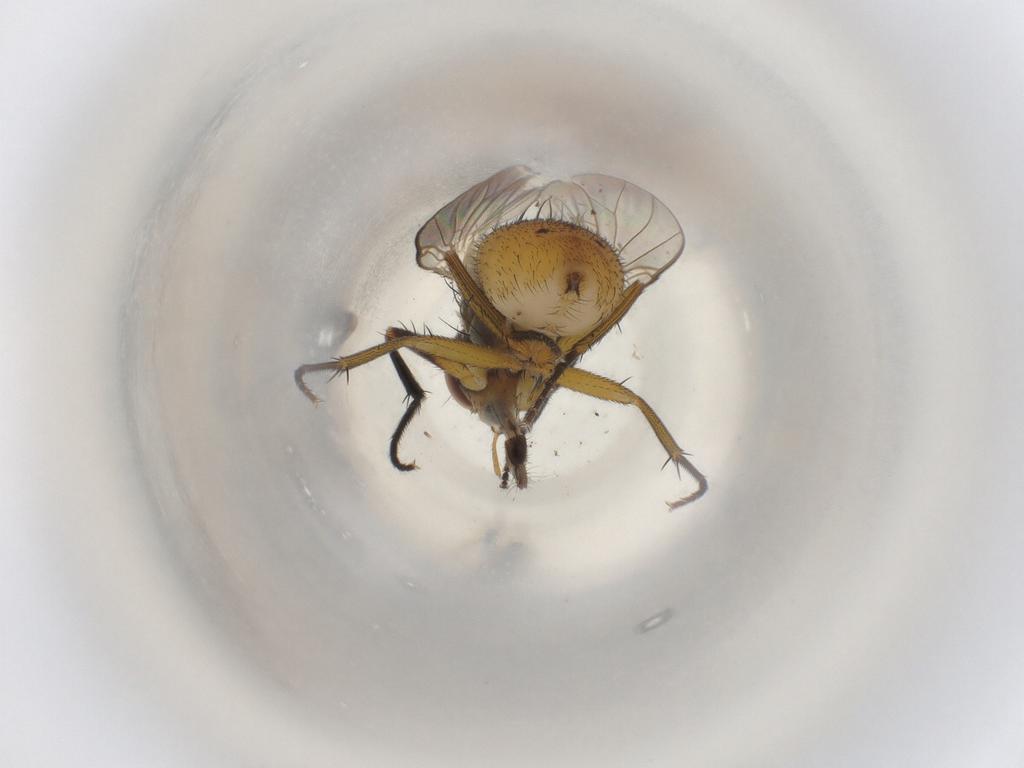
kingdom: Animalia
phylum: Arthropoda
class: Insecta
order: Diptera
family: Muscidae
